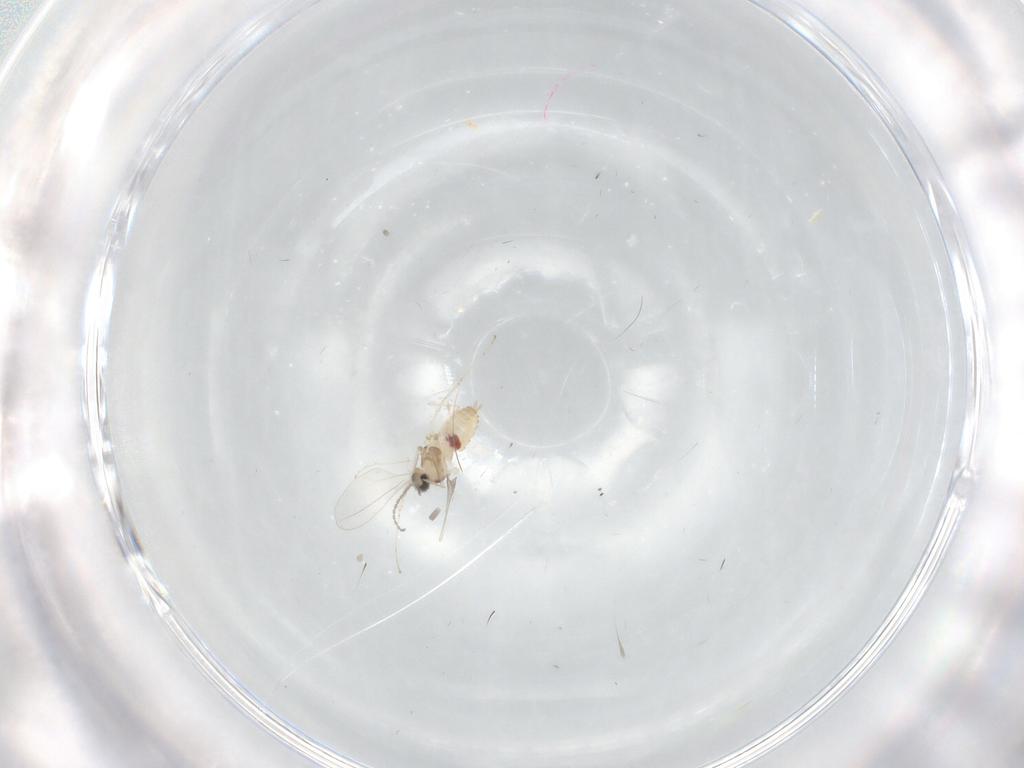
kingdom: Animalia
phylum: Arthropoda
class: Insecta
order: Diptera
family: Cecidomyiidae
